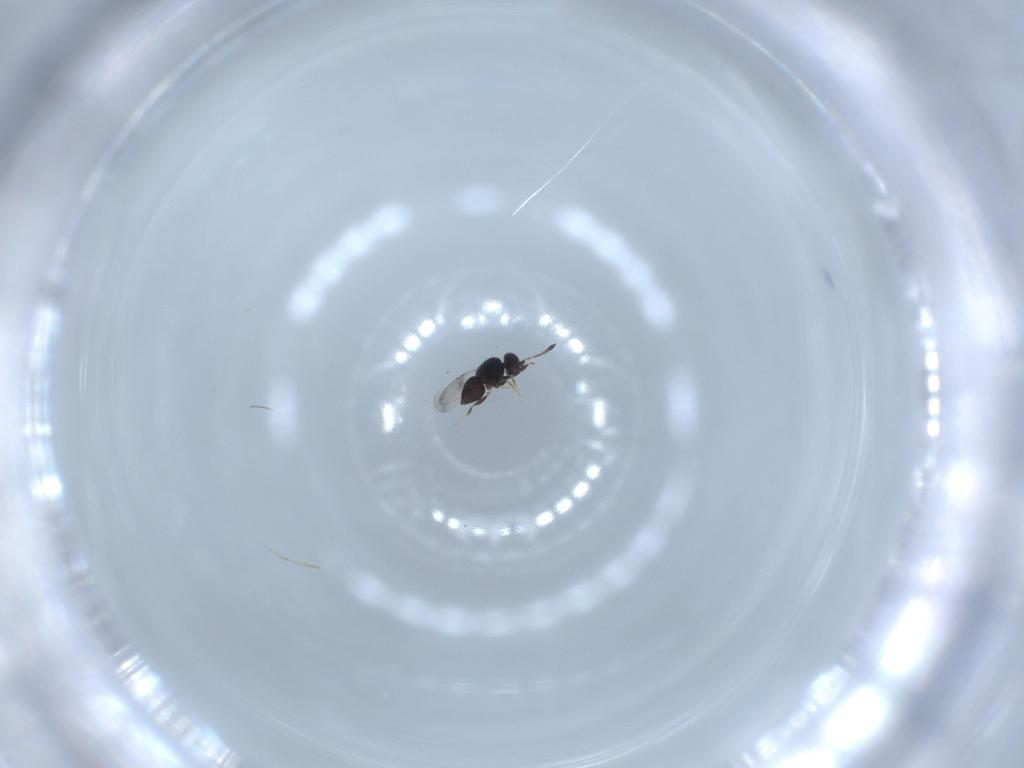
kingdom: Animalia
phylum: Arthropoda
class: Insecta
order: Hymenoptera
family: Ceraphronidae
